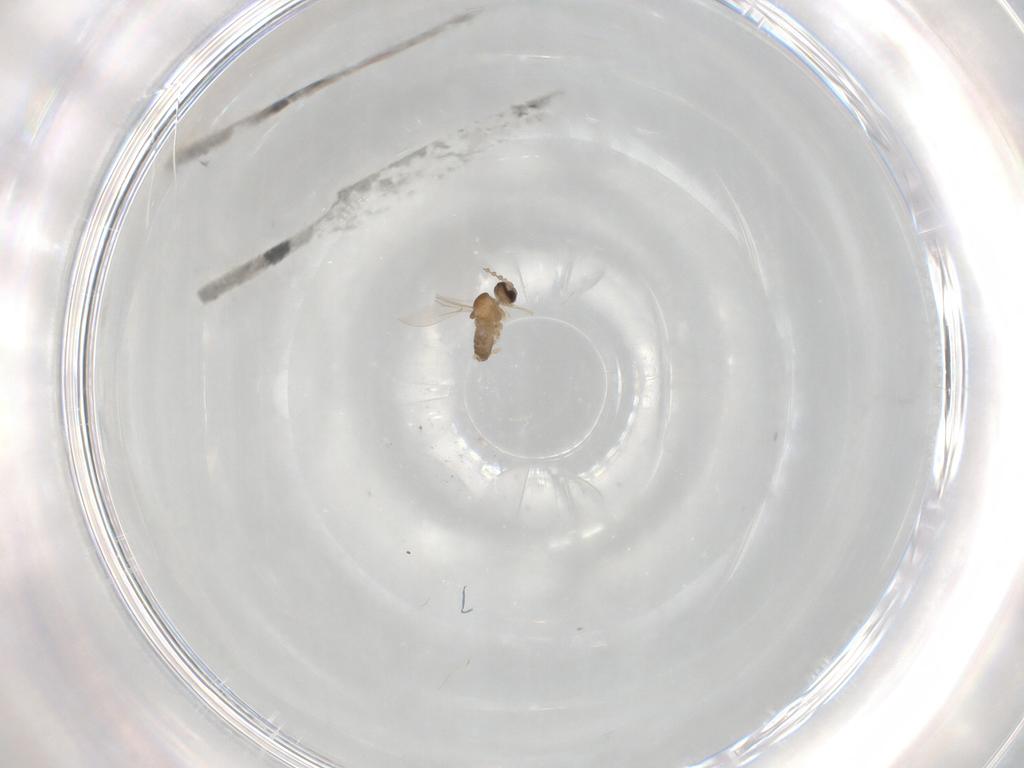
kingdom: Animalia
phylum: Arthropoda
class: Insecta
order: Diptera
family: Cecidomyiidae
